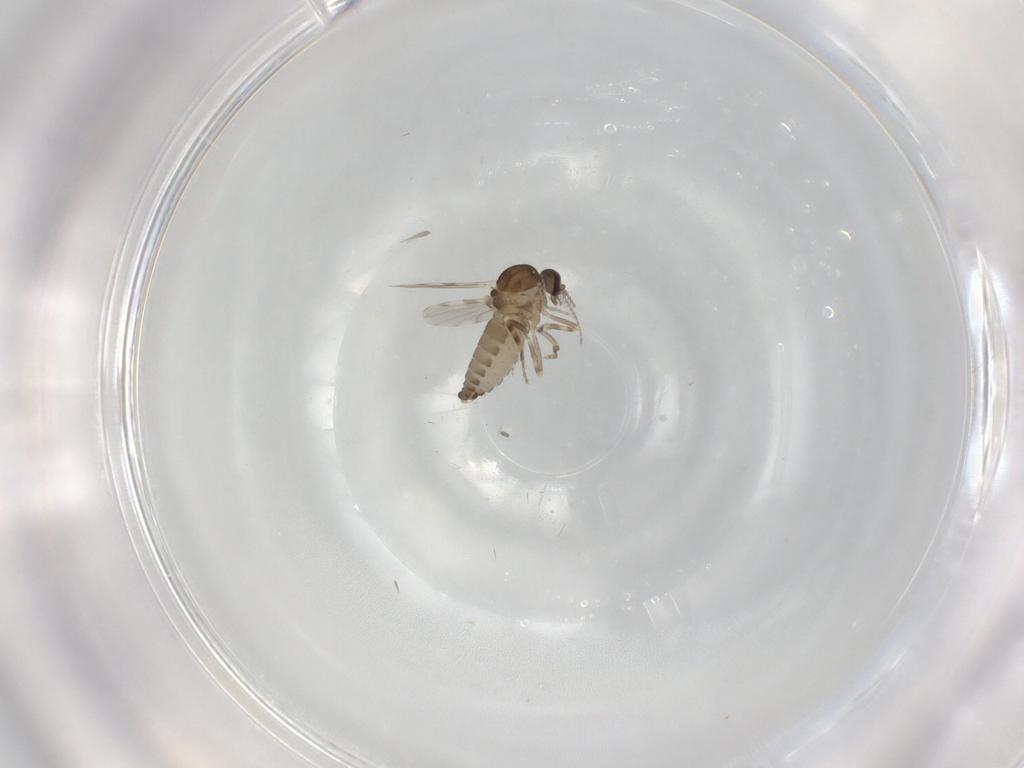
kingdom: Animalia
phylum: Arthropoda
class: Insecta
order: Diptera
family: Ceratopogonidae
